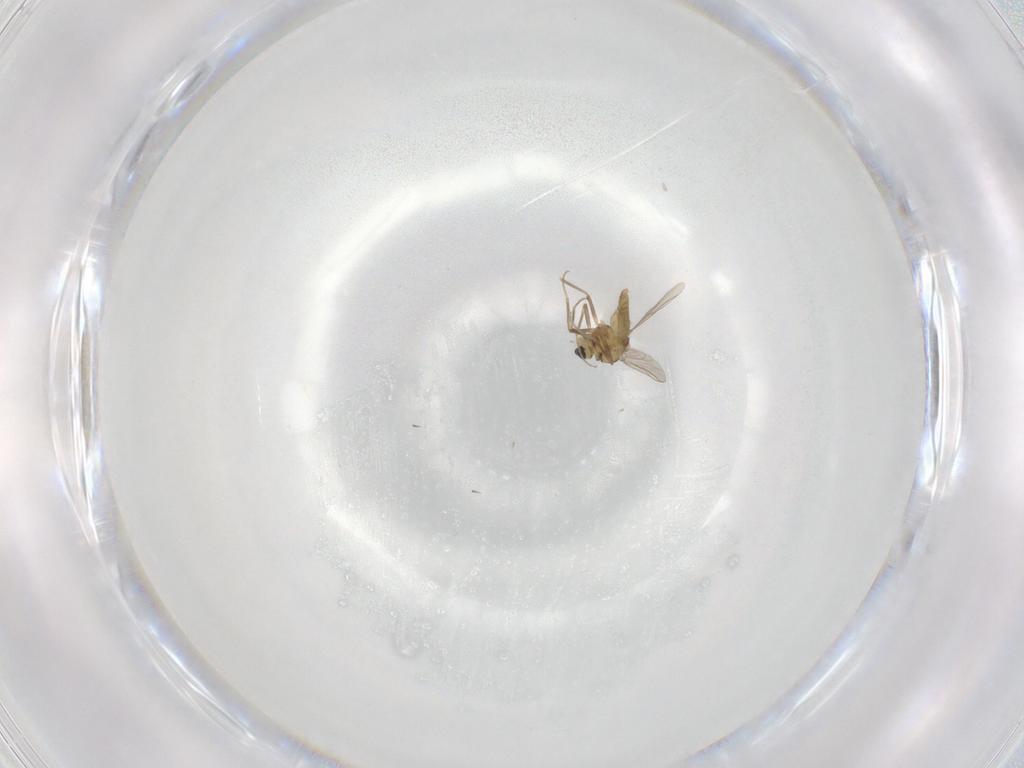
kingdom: Animalia
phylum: Arthropoda
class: Insecta
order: Diptera
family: Chironomidae
